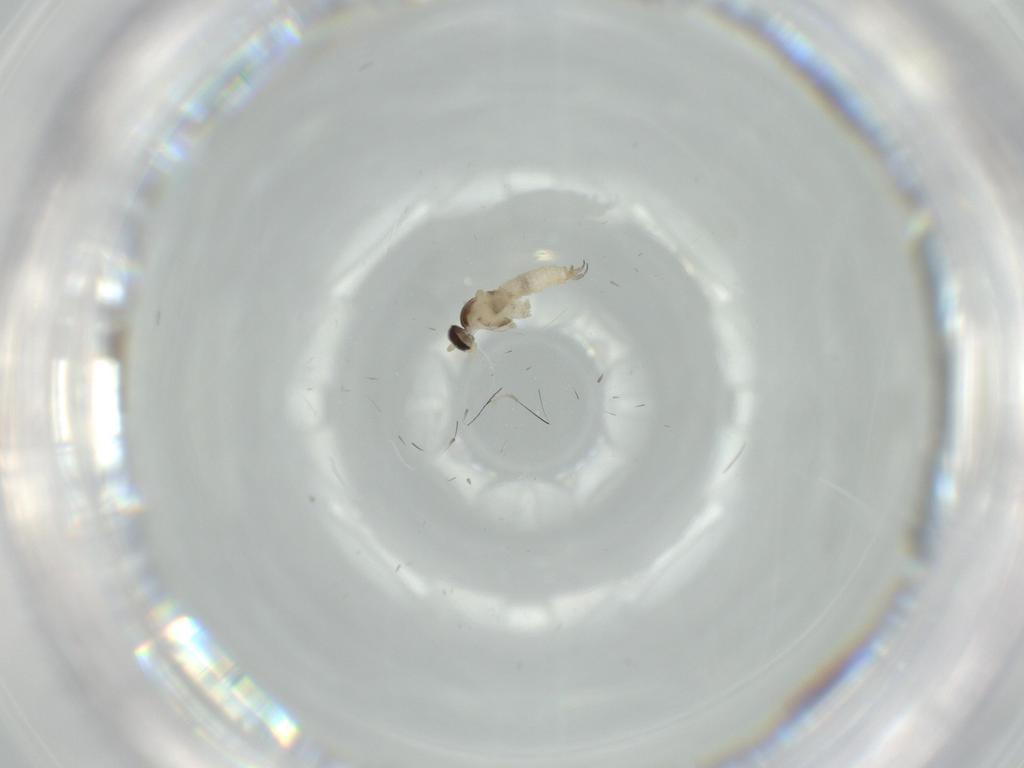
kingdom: Animalia
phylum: Arthropoda
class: Insecta
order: Diptera
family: Cecidomyiidae
